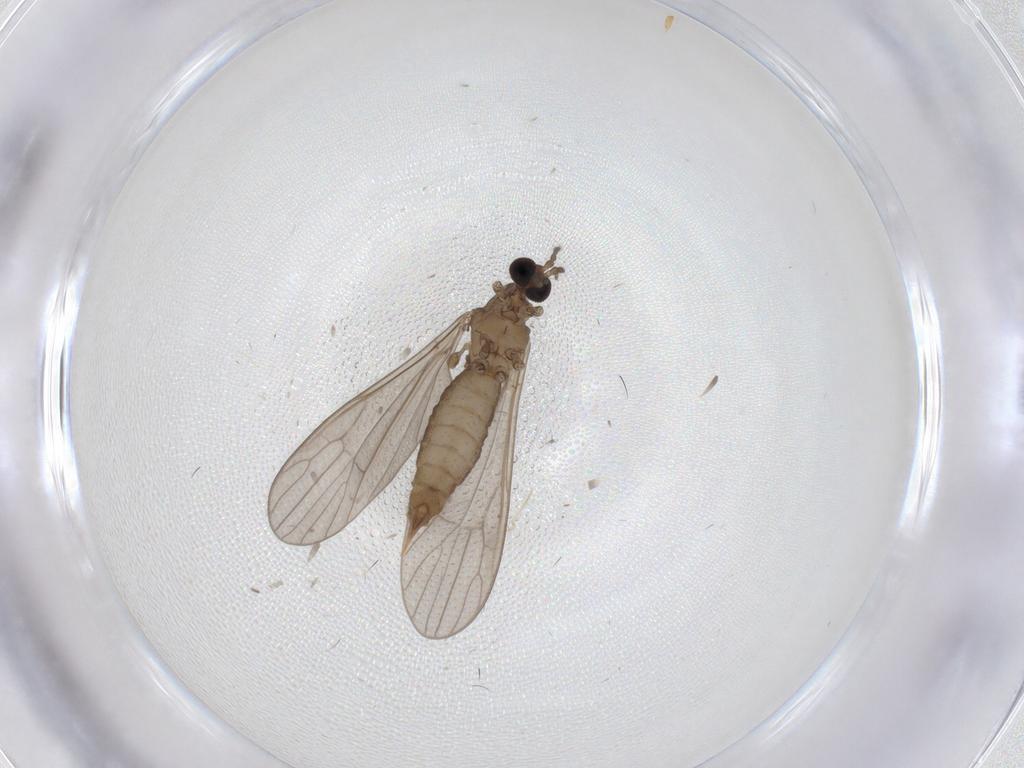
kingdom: Animalia
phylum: Arthropoda
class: Insecta
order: Diptera
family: Limoniidae
